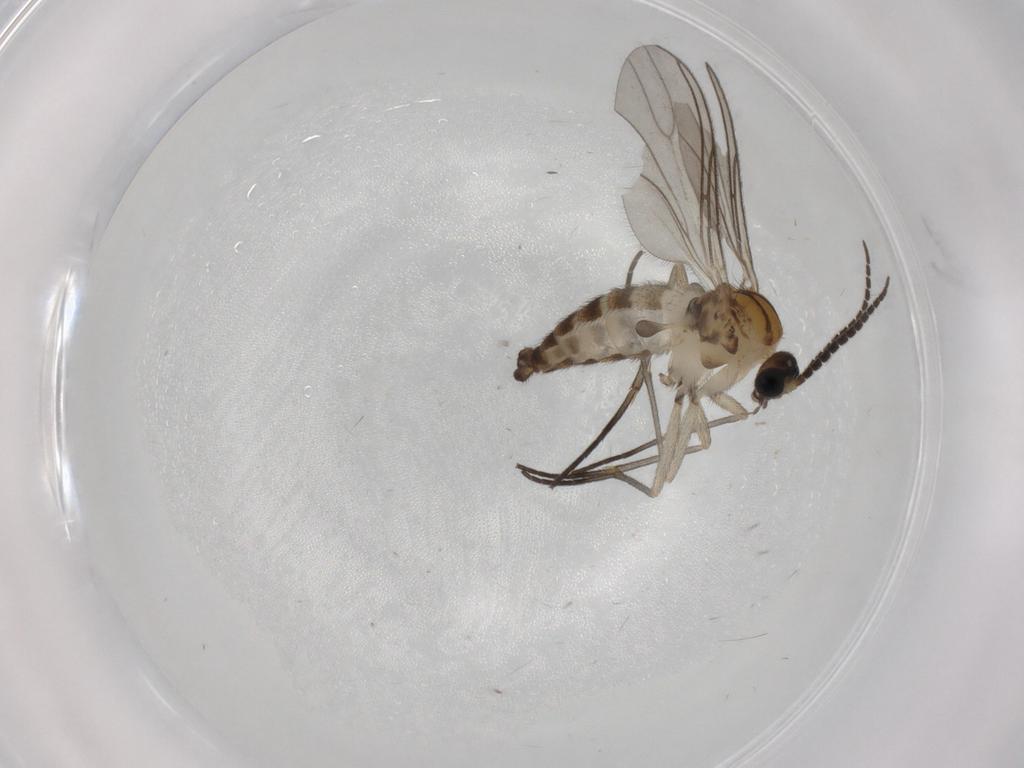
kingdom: Animalia
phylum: Arthropoda
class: Insecta
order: Diptera
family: Sciaridae
